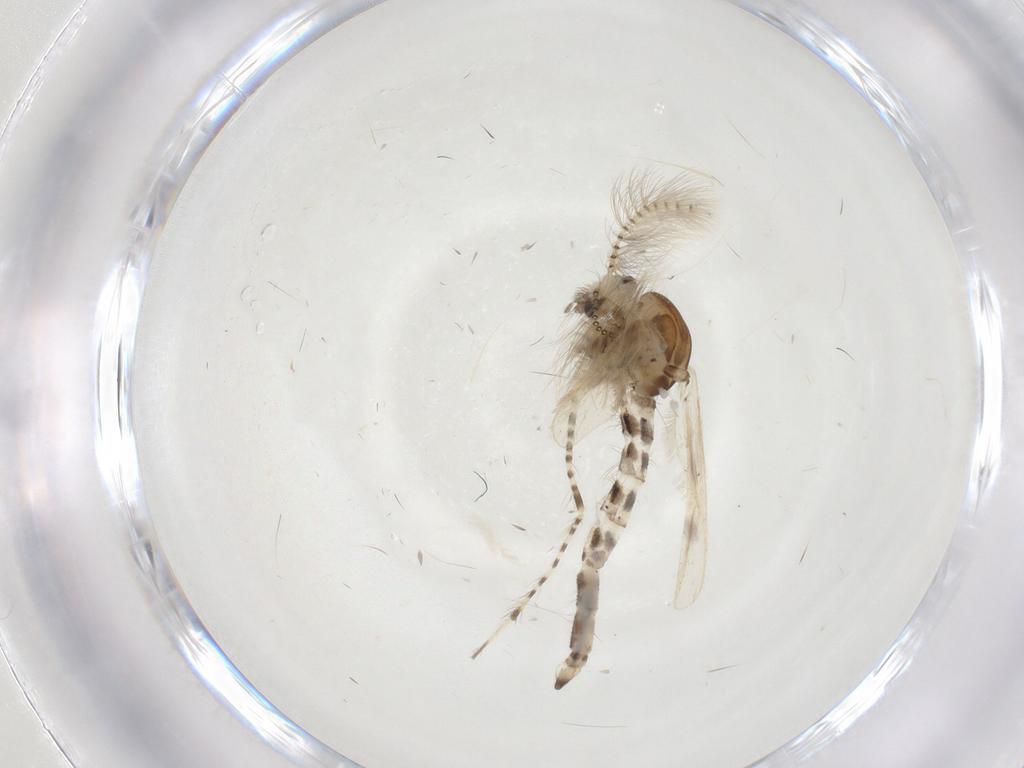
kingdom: Animalia
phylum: Arthropoda
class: Insecta
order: Diptera
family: Chaoboridae
